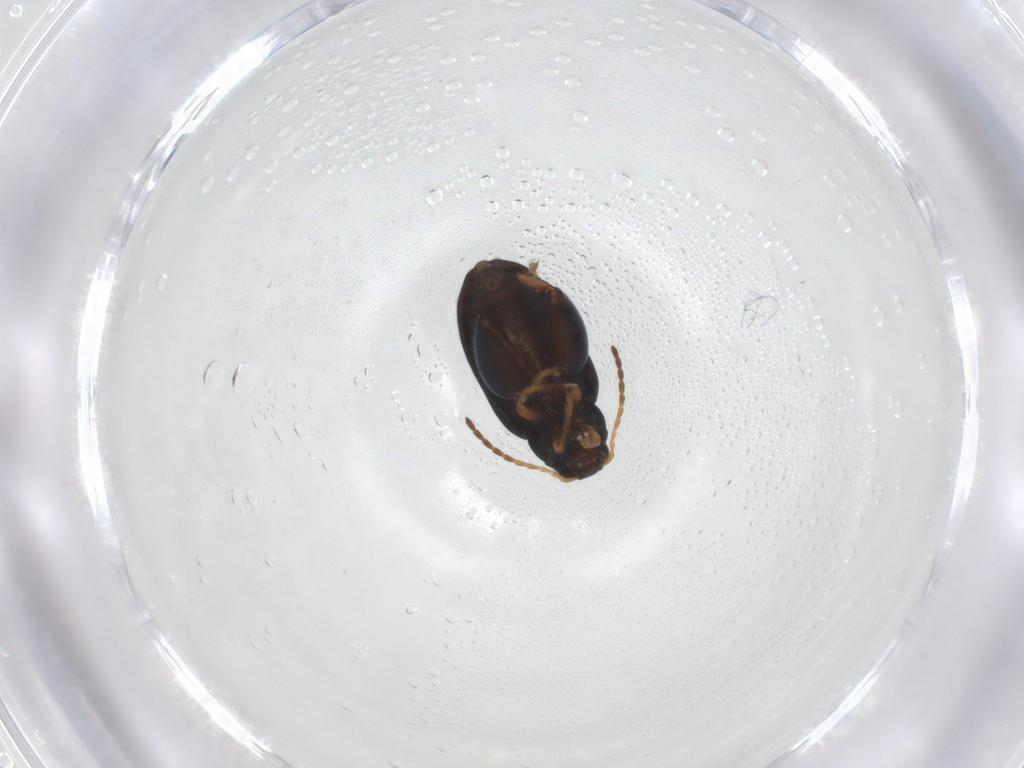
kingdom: Animalia
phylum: Arthropoda
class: Insecta
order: Coleoptera
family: Chrysomelidae
